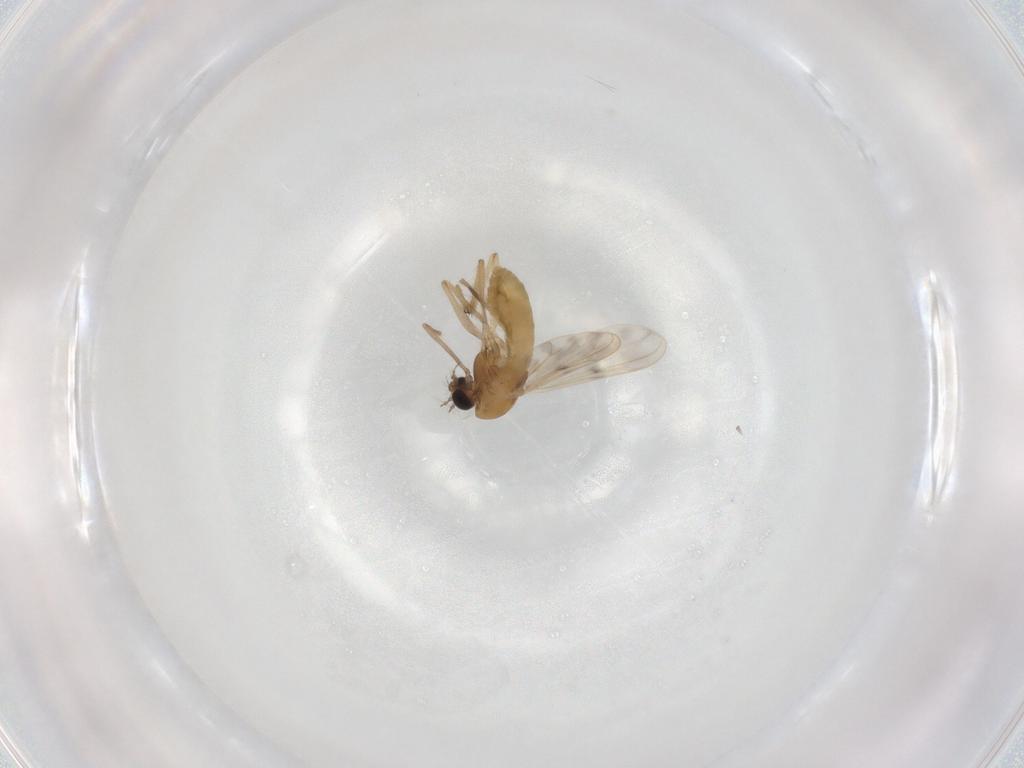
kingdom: Animalia
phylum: Arthropoda
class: Insecta
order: Diptera
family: Chironomidae
